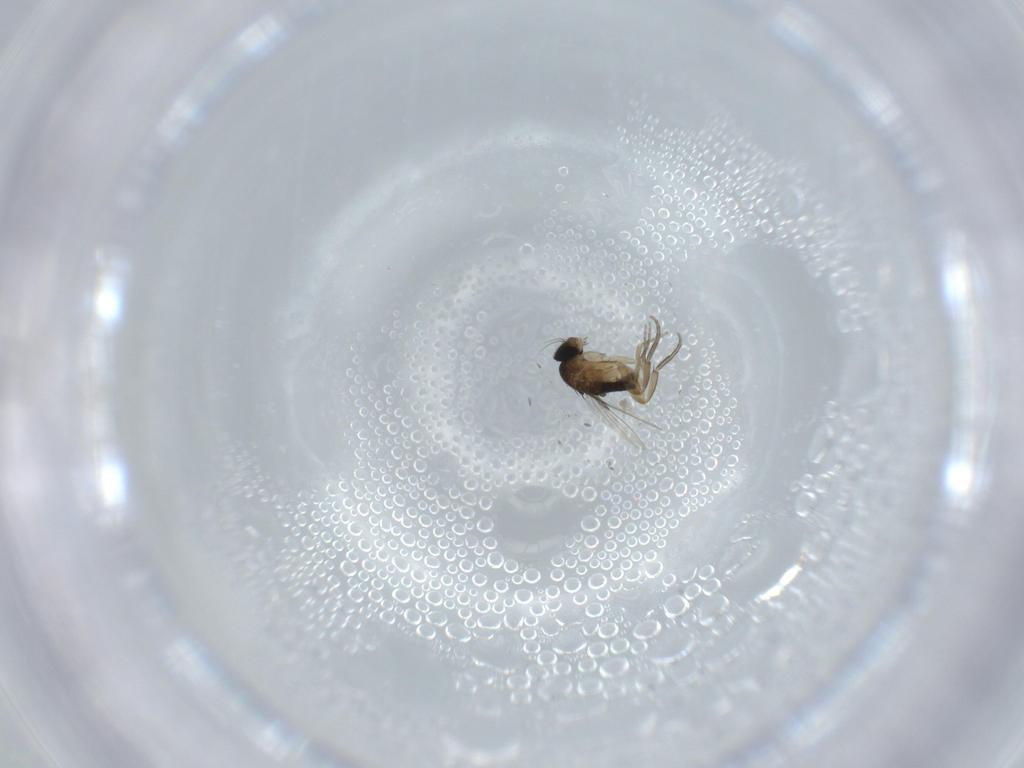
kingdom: Animalia
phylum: Arthropoda
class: Insecta
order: Diptera
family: Phoridae
